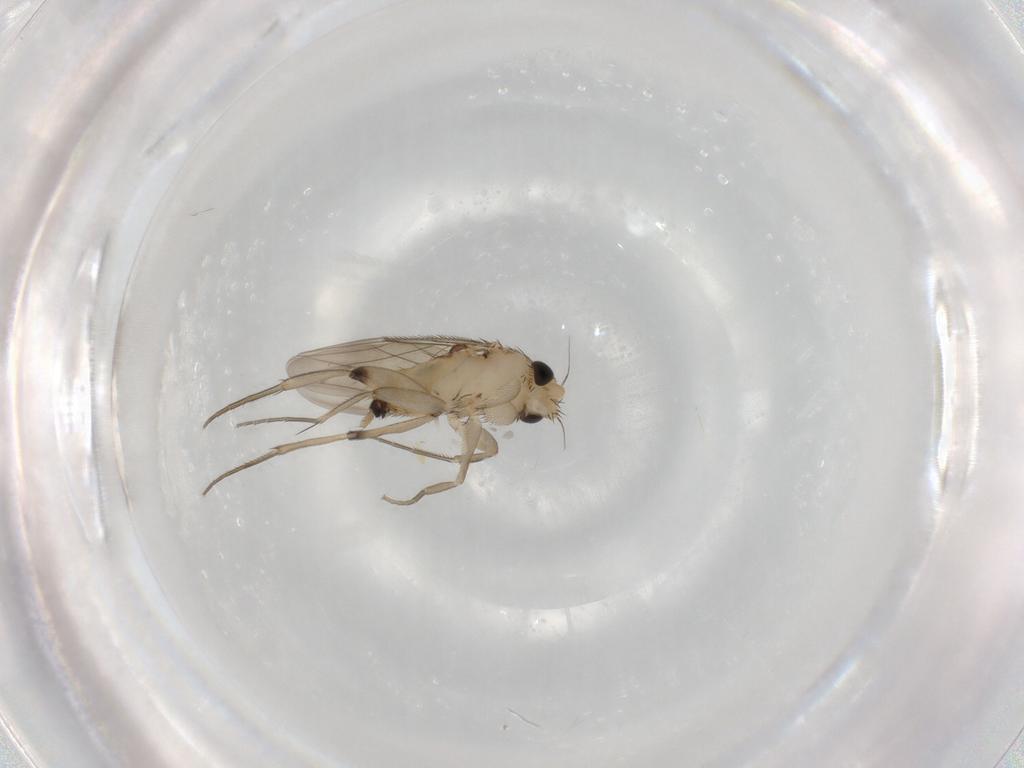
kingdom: Animalia
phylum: Arthropoda
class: Insecta
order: Diptera
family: Phoridae
